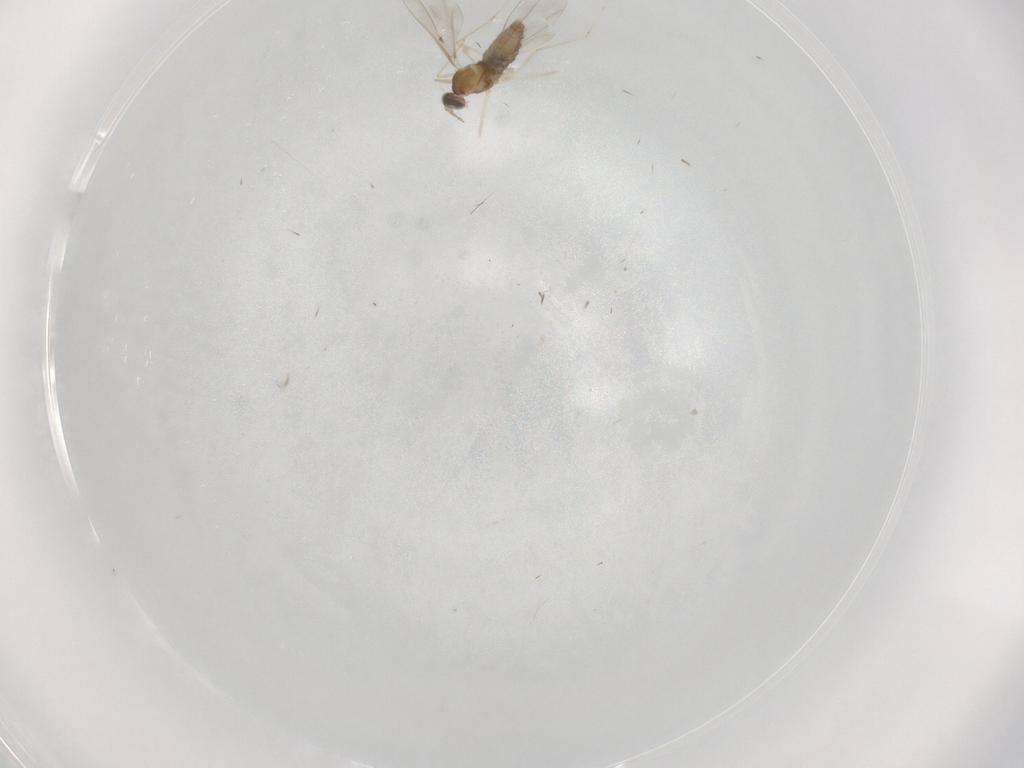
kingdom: Animalia
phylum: Arthropoda
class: Insecta
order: Diptera
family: Cecidomyiidae
